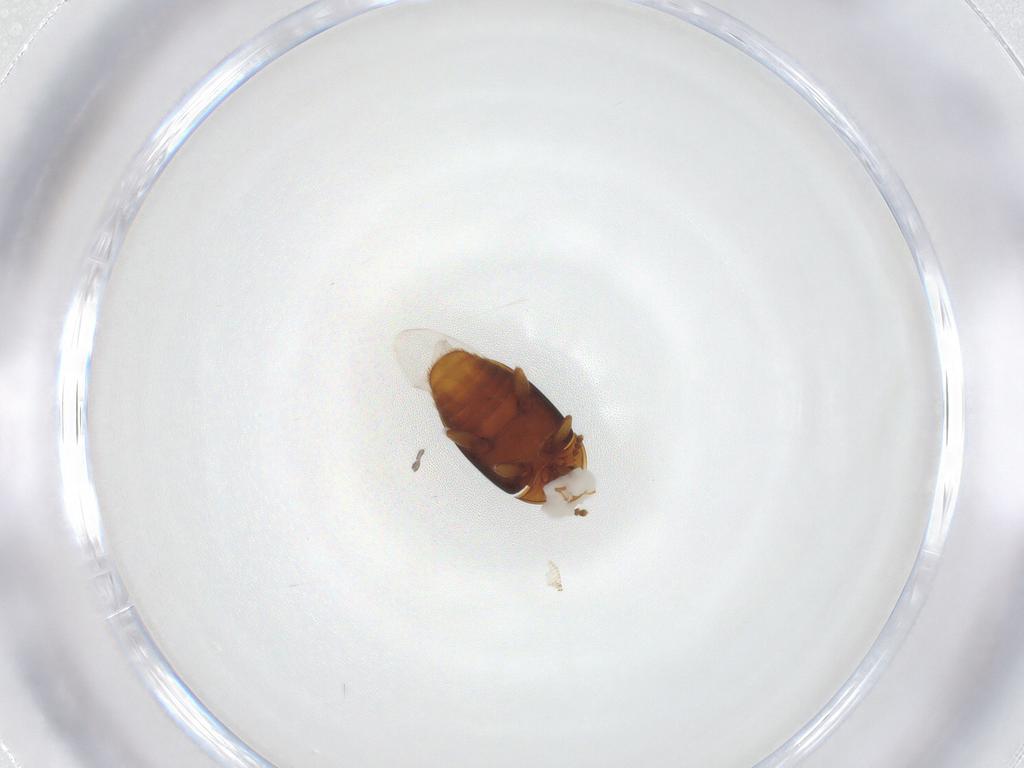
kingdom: Animalia
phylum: Arthropoda
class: Insecta
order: Coleoptera
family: Corylophidae
